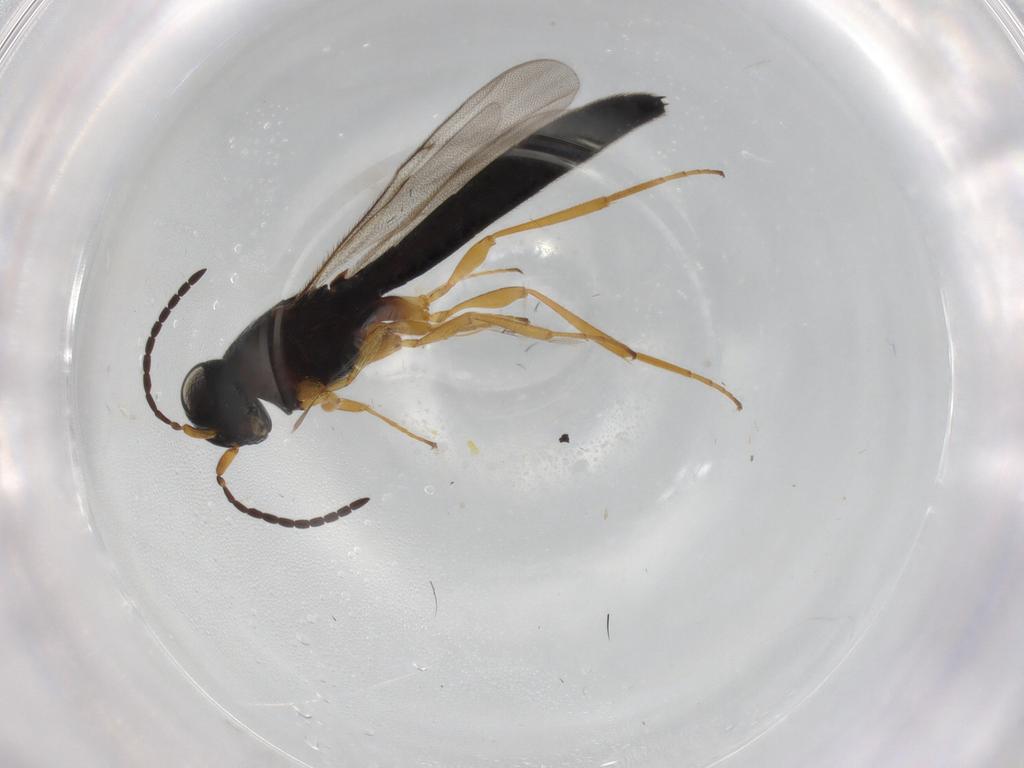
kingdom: Animalia
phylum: Arthropoda
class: Insecta
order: Hymenoptera
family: Scelionidae
